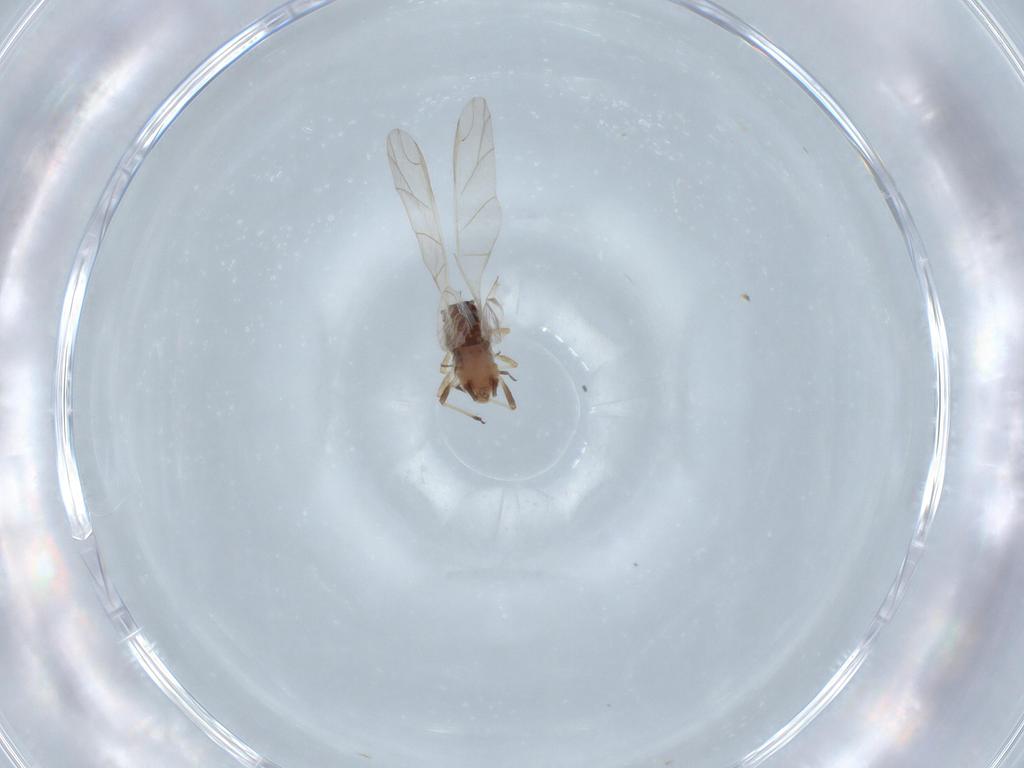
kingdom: Animalia
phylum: Arthropoda
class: Insecta
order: Hemiptera
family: Aphididae
